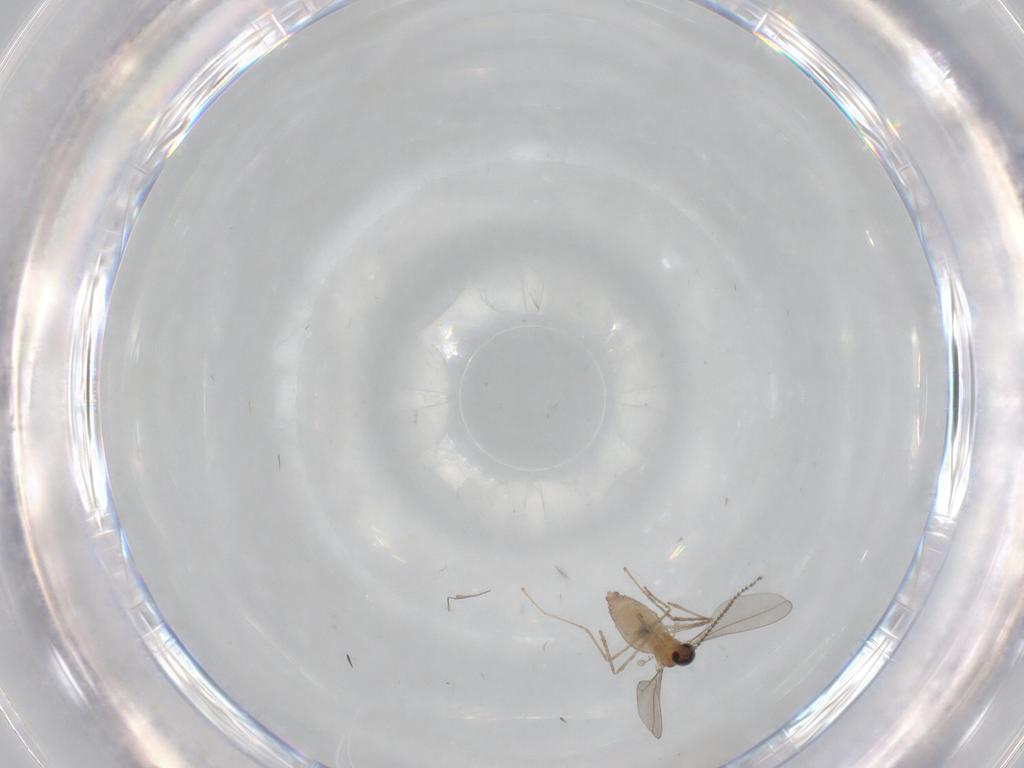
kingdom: Animalia
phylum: Arthropoda
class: Insecta
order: Diptera
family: Cecidomyiidae
